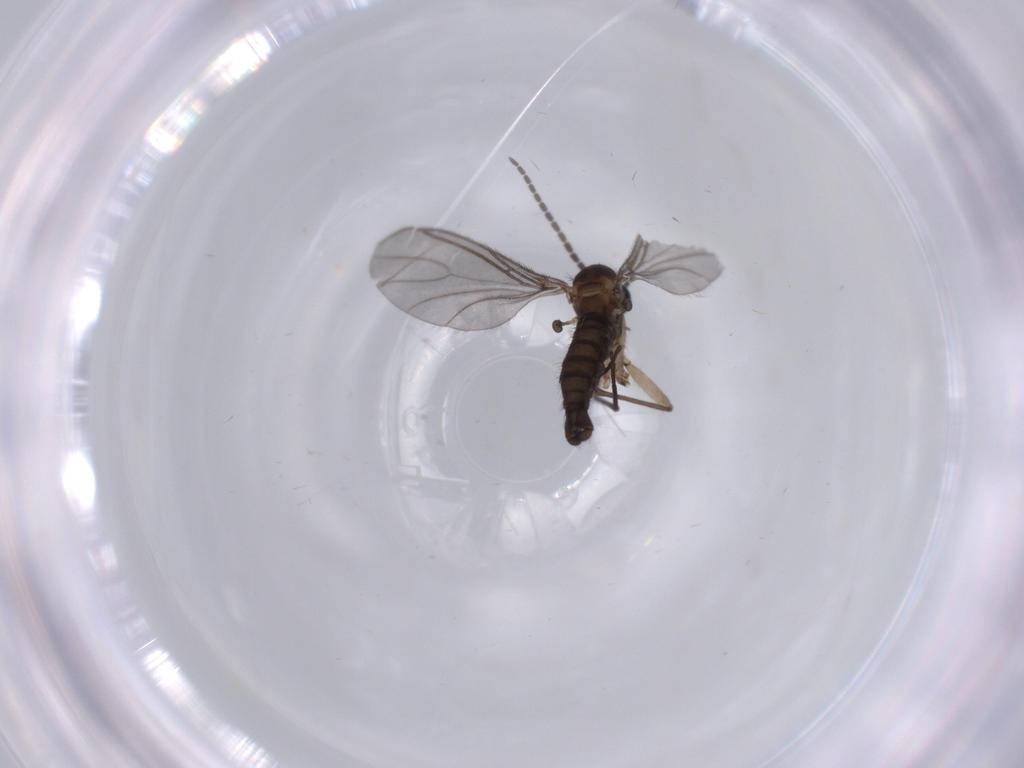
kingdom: Animalia
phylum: Arthropoda
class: Insecta
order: Diptera
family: Sciaridae
